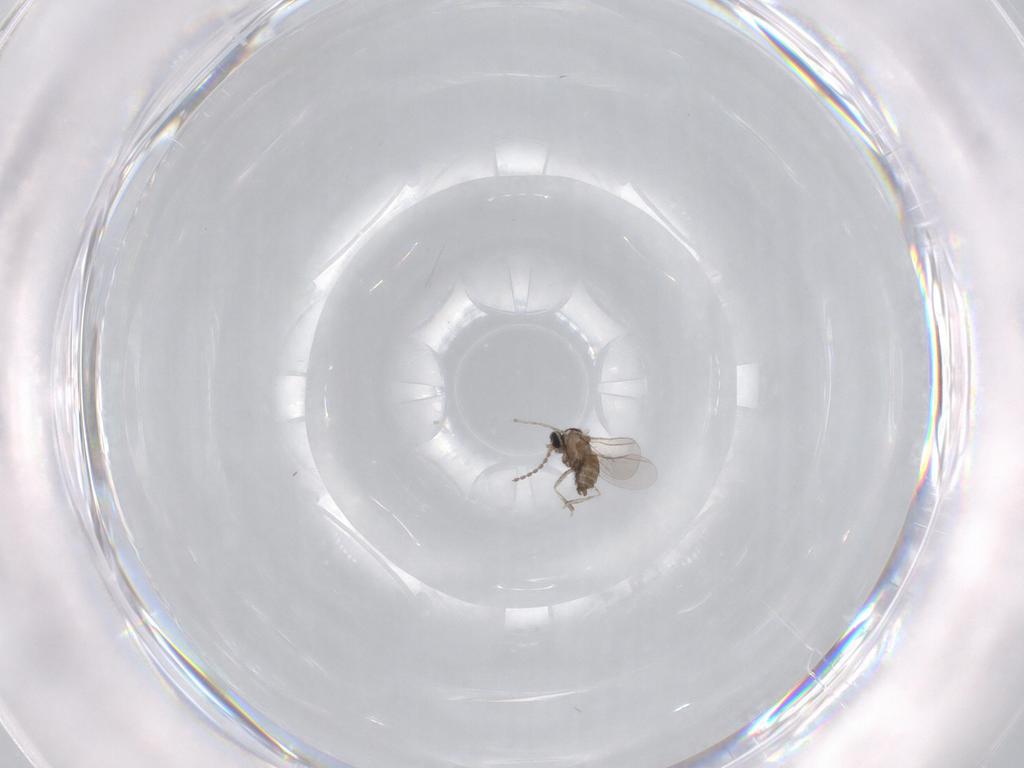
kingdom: Animalia
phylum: Arthropoda
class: Insecta
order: Diptera
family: Cecidomyiidae
